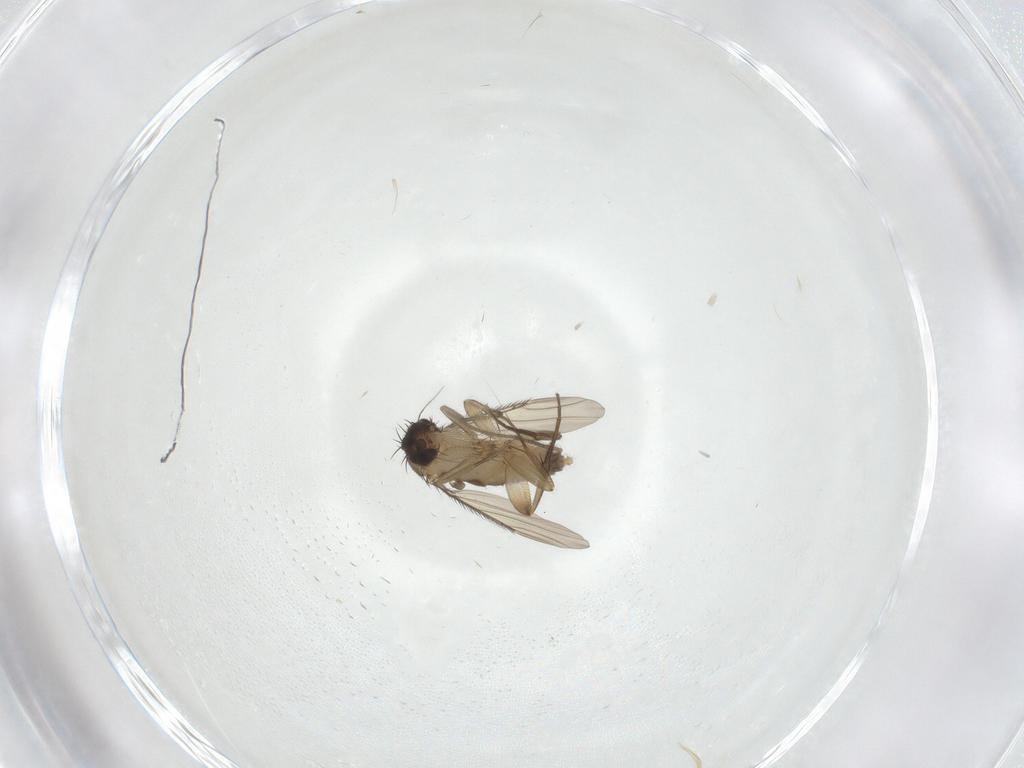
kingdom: Animalia
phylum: Arthropoda
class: Insecta
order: Diptera
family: Phoridae
